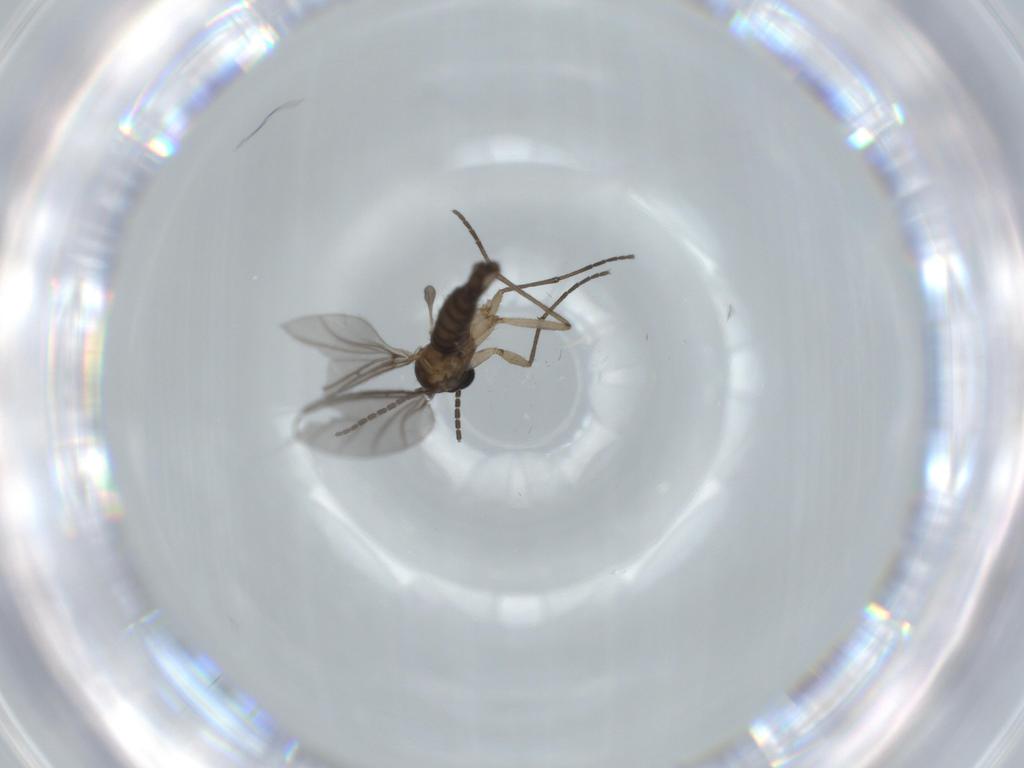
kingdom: Animalia
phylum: Arthropoda
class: Insecta
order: Diptera
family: Sciaridae
